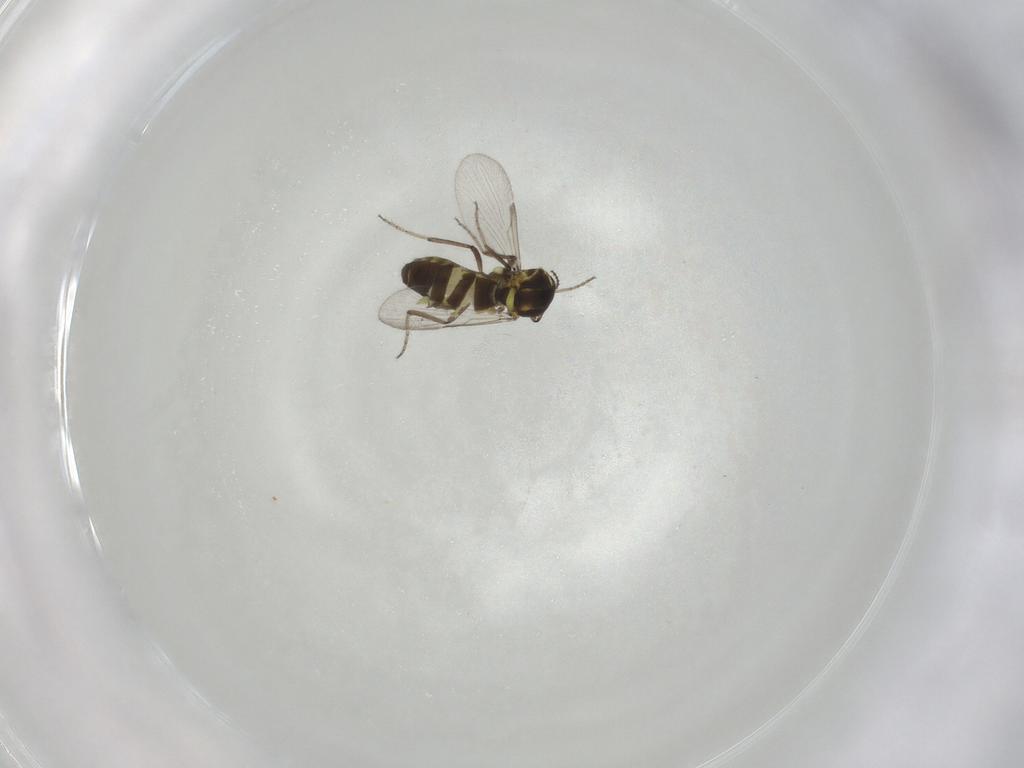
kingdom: Animalia
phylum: Arthropoda
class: Insecta
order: Diptera
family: Ceratopogonidae
